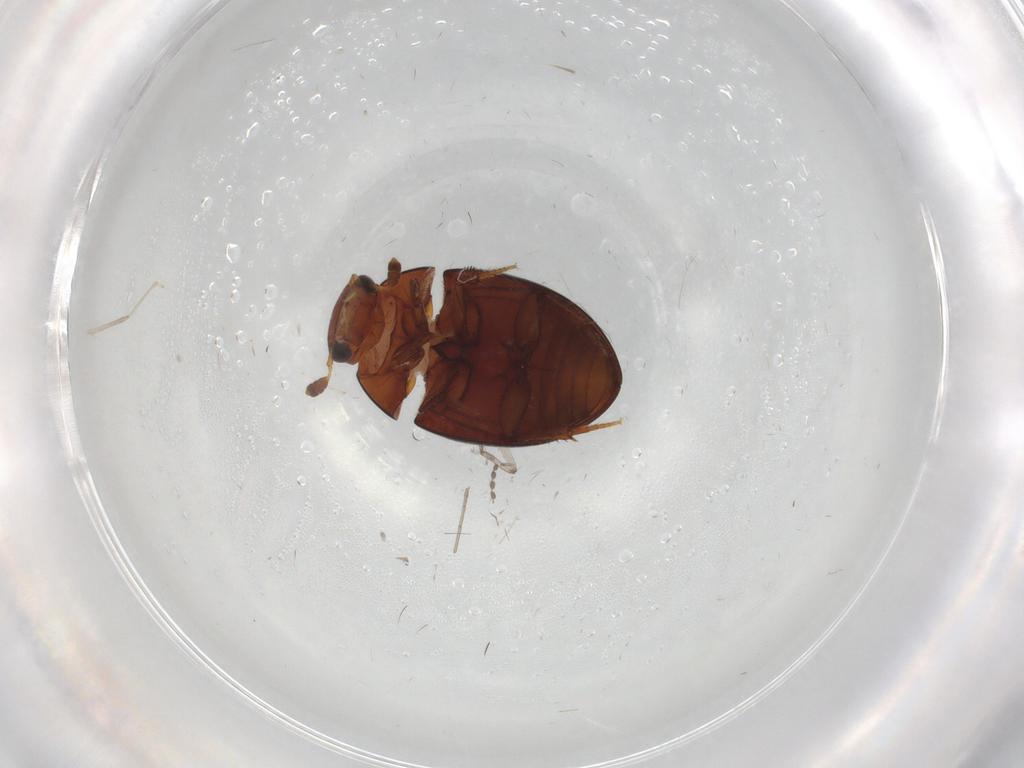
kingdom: Animalia
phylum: Arthropoda
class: Insecta
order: Coleoptera
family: Hydrophilidae
